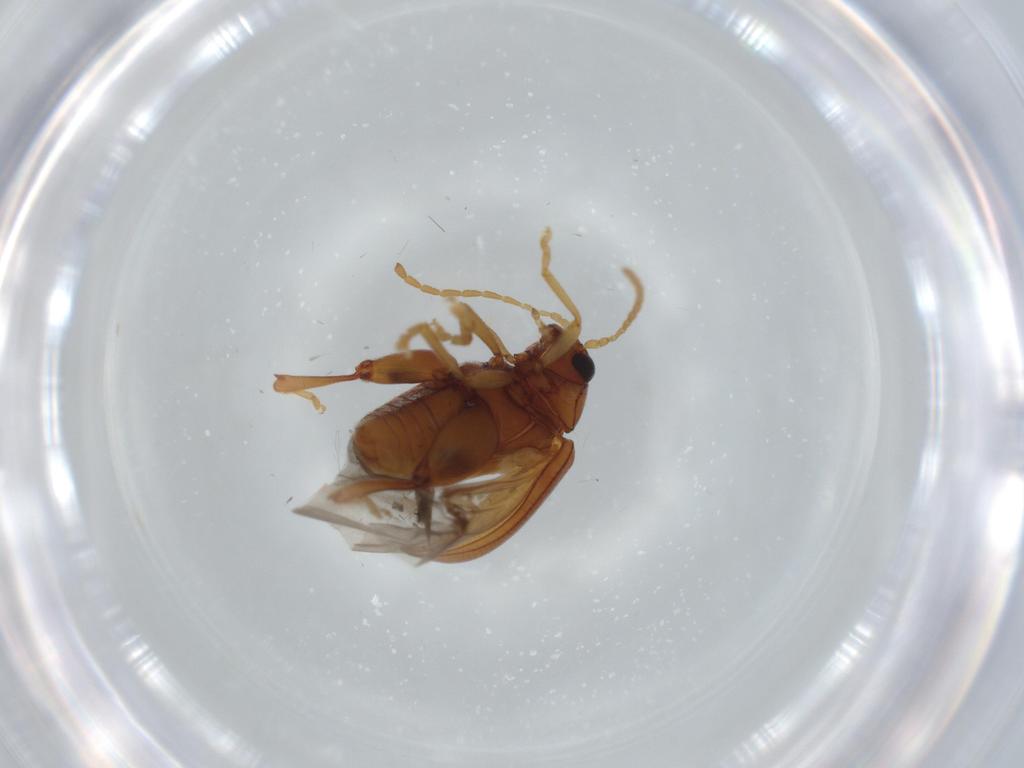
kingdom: Animalia
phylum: Arthropoda
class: Insecta
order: Coleoptera
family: Chrysomelidae
